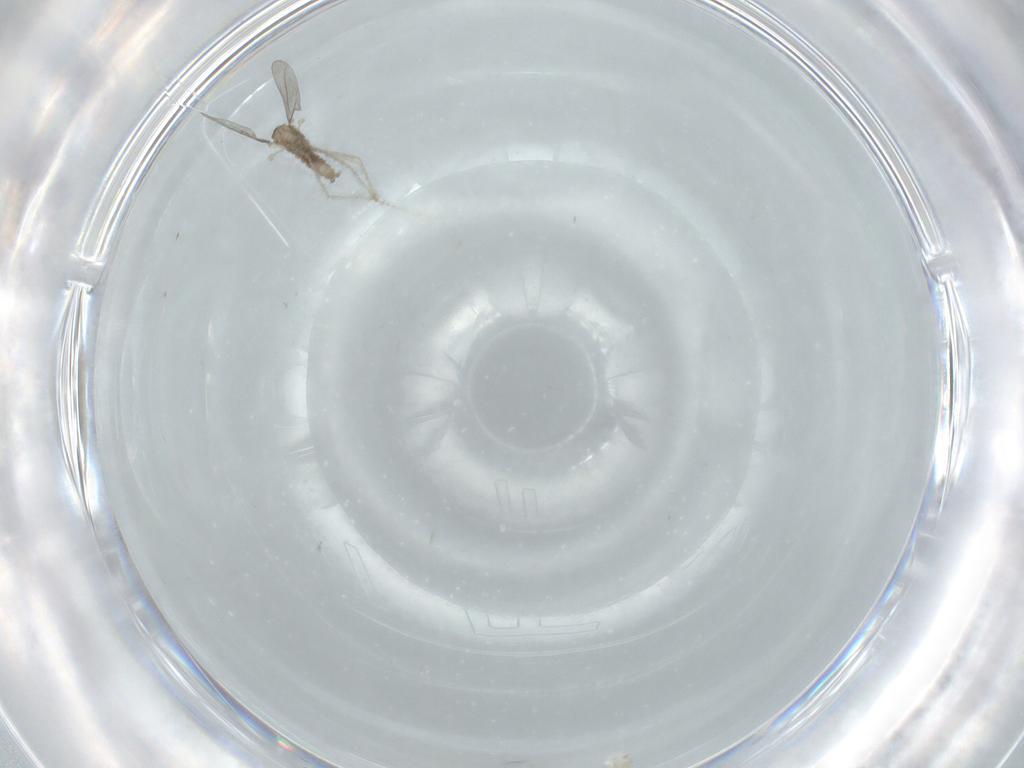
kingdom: Animalia
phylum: Arthropoda
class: Insecta
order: Diptera
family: Cecidomyiidae
